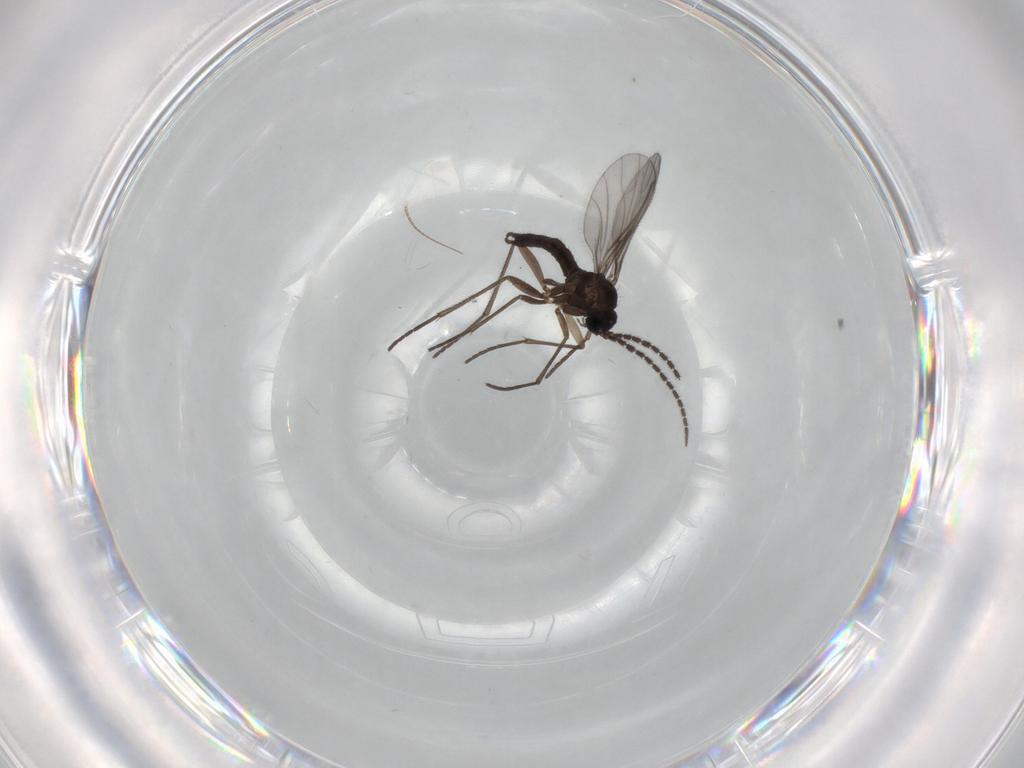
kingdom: Animalia
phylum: Arthropoda
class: Insecta
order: Diptera
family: Sciaridae
